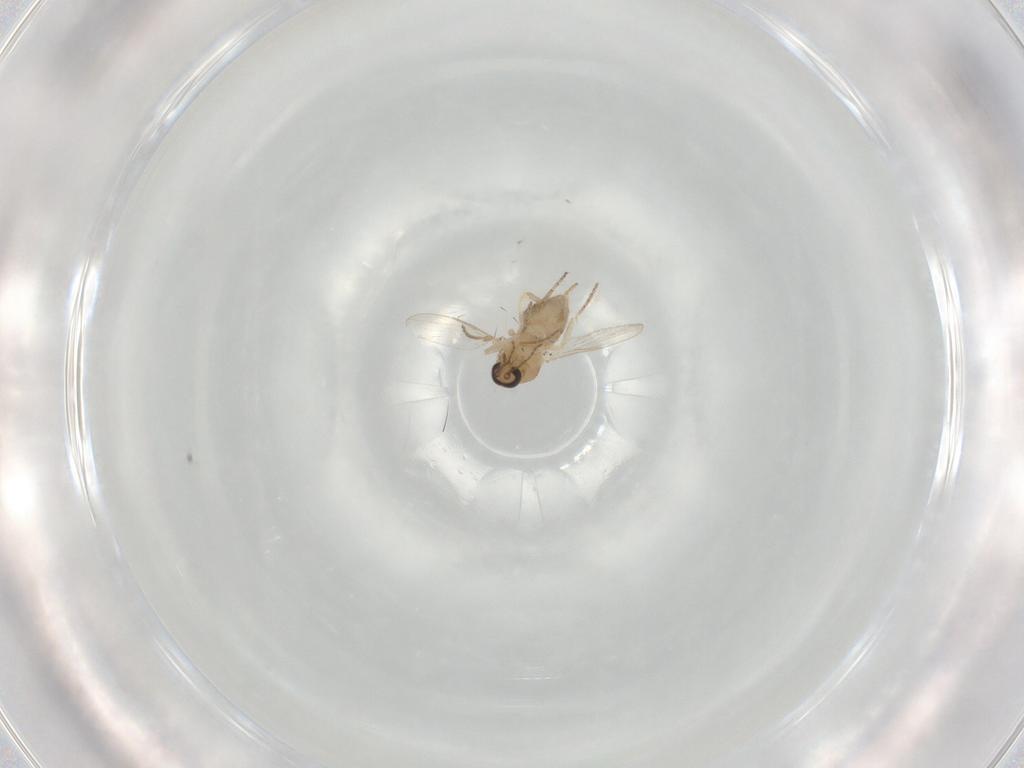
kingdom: Animalia
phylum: Arthropoda
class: Insecta
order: Diptera
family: Ceratopogonidae
